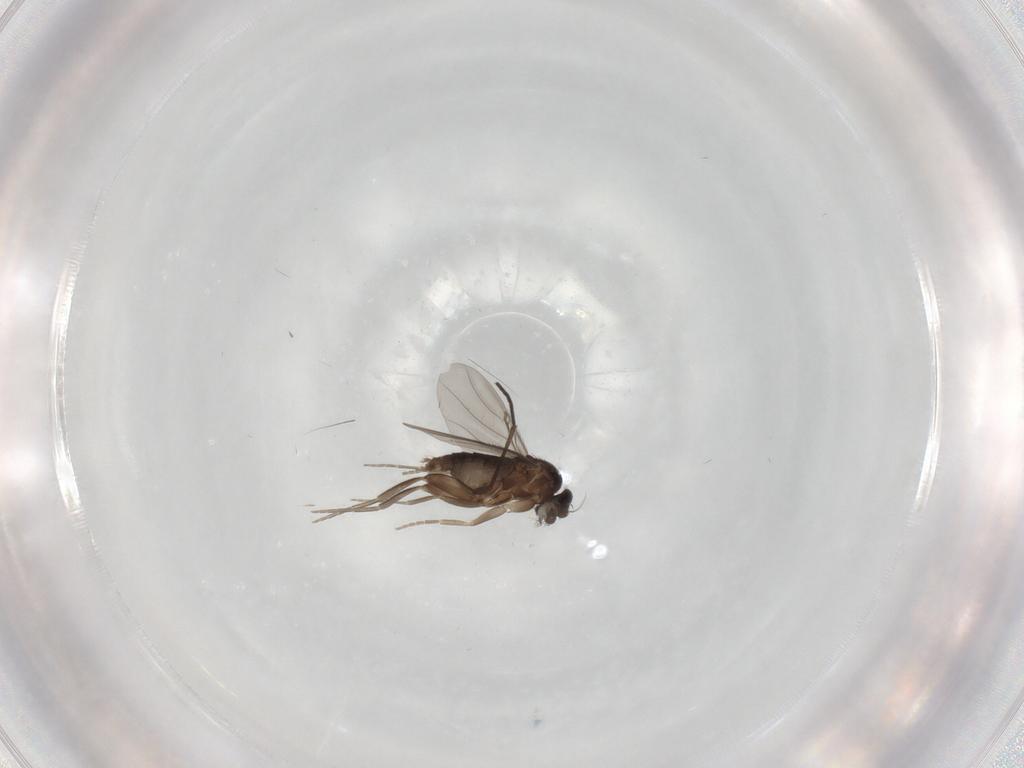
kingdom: Animalia
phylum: Arthropoda
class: Insecta
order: Diptera
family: Phoridae
